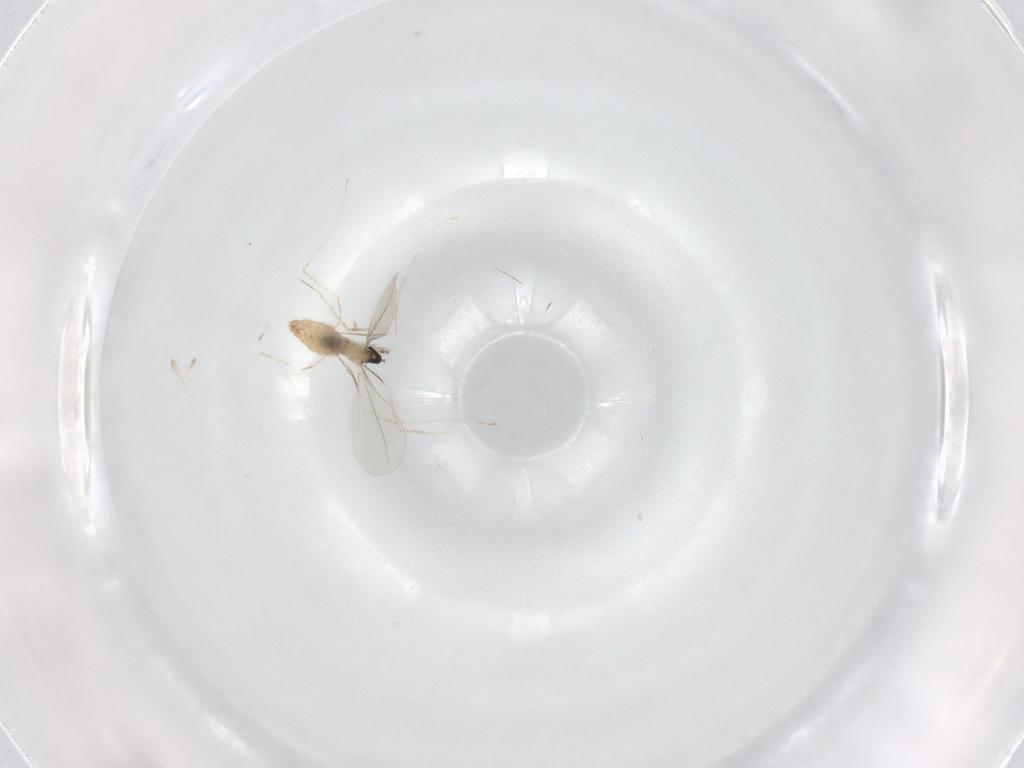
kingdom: Animalia
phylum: Arthropoda
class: Insecta
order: Diptera
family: Cecidomyiidae
